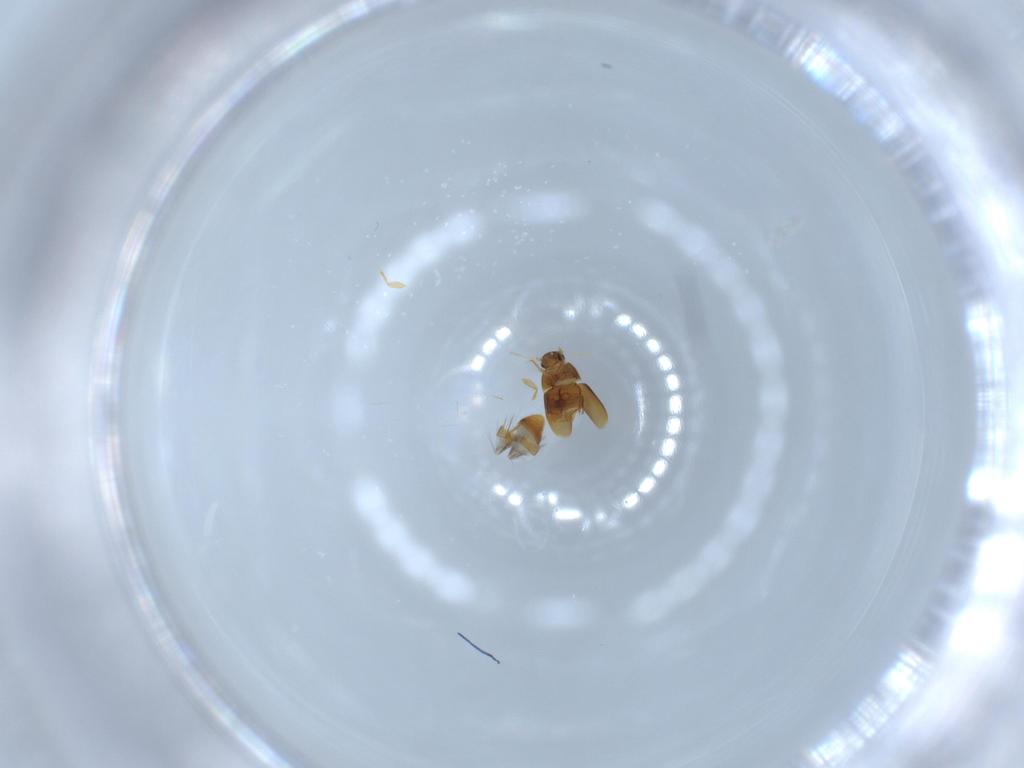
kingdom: Animalia
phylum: Arthropoda
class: Insecta
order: Coleoptera
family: Ptiliidae
